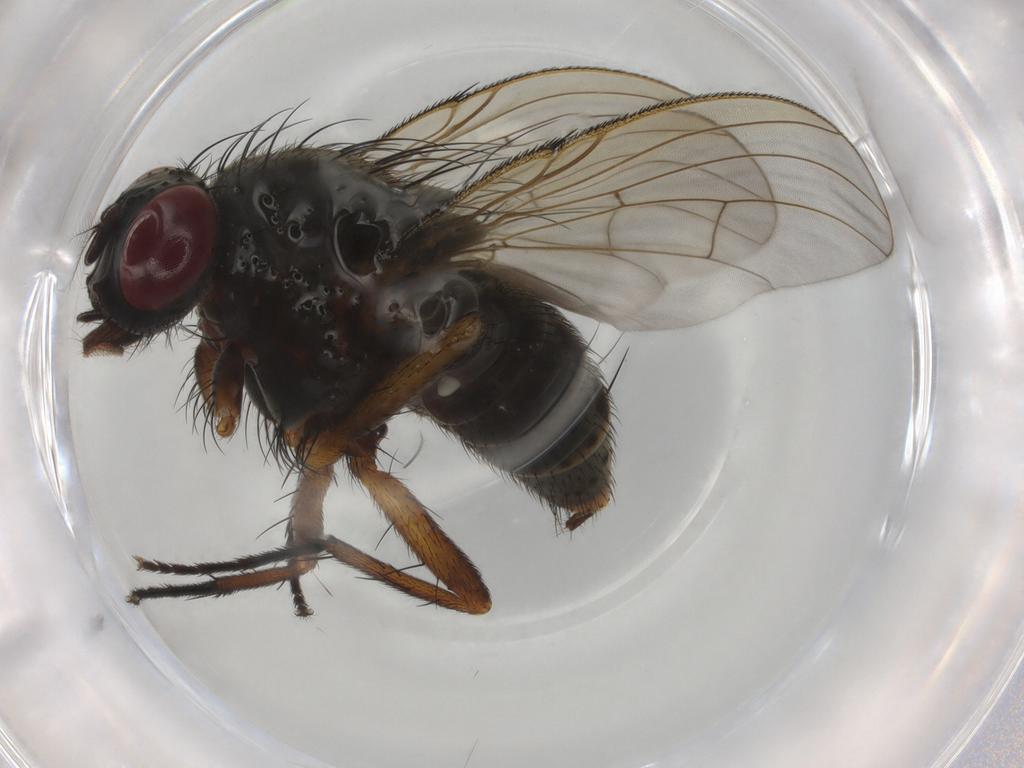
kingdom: Animalia
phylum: Arthropoda
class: Insecta
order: Diptera
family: Muscidae
